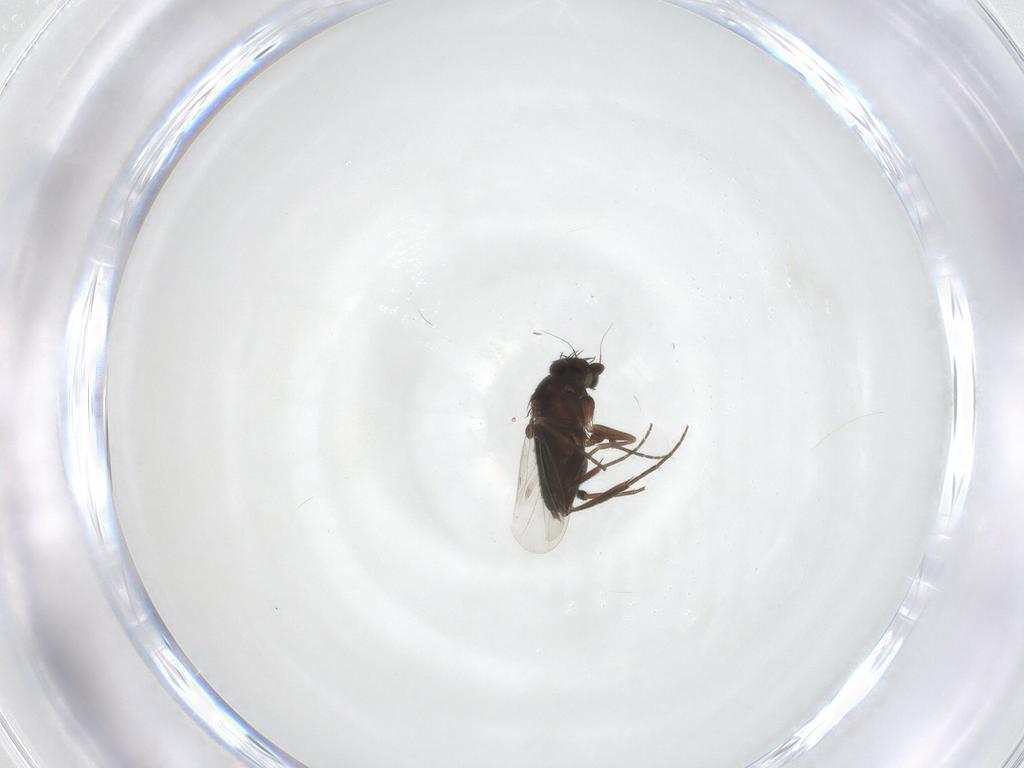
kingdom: Animalia
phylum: Arthropoda
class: Insecta
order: Diptera
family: Phoridae
